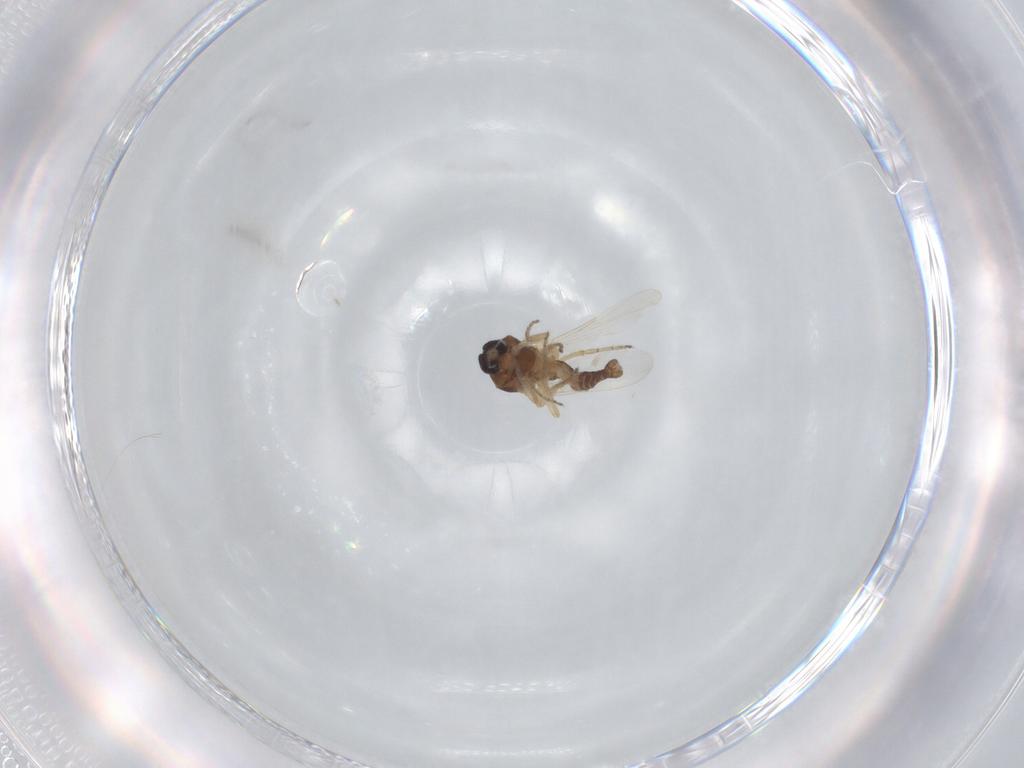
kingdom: Animalia
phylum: Arthropoda
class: Insecta
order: Diptera
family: Ceratopogonidae
